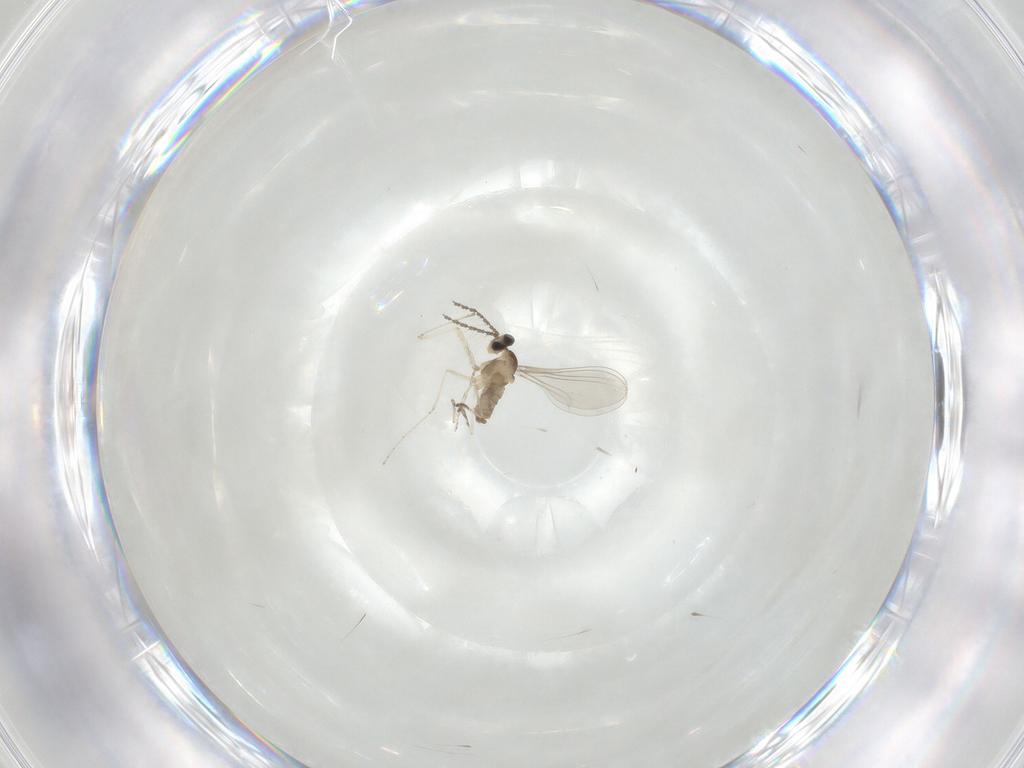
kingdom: Animalia
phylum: Arthropoda
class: Insecta
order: Diptera
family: Cecidomyiidae
